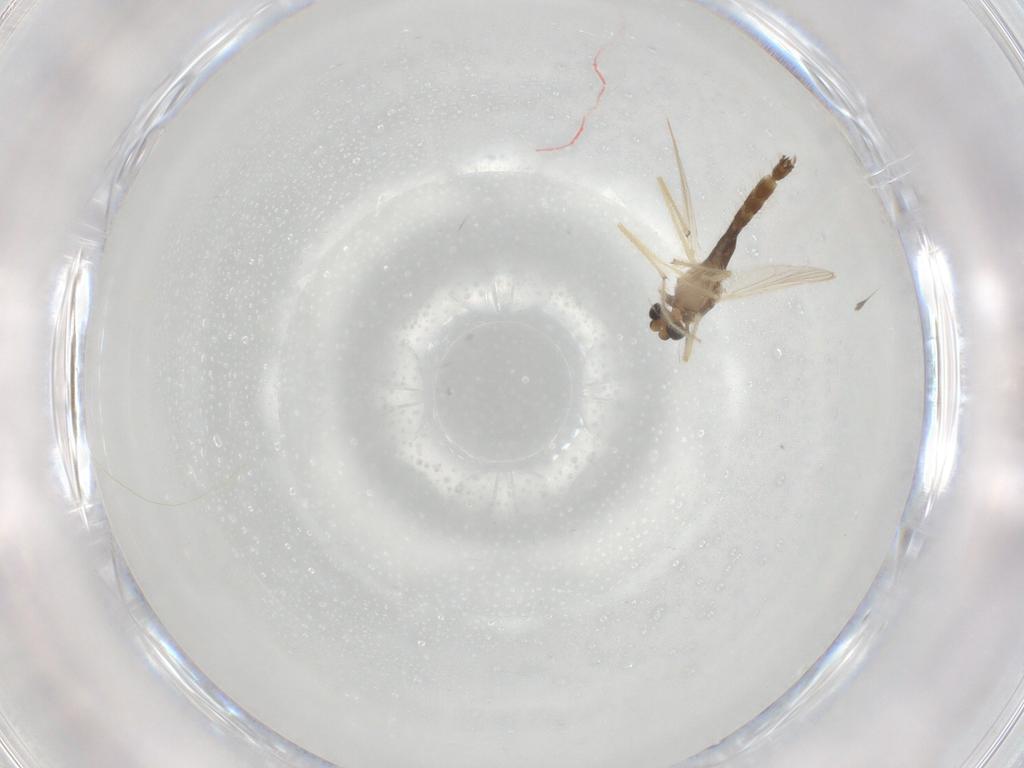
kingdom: Animalia
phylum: Arthropoda
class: Insecta
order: Diptera
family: Chironomidae
